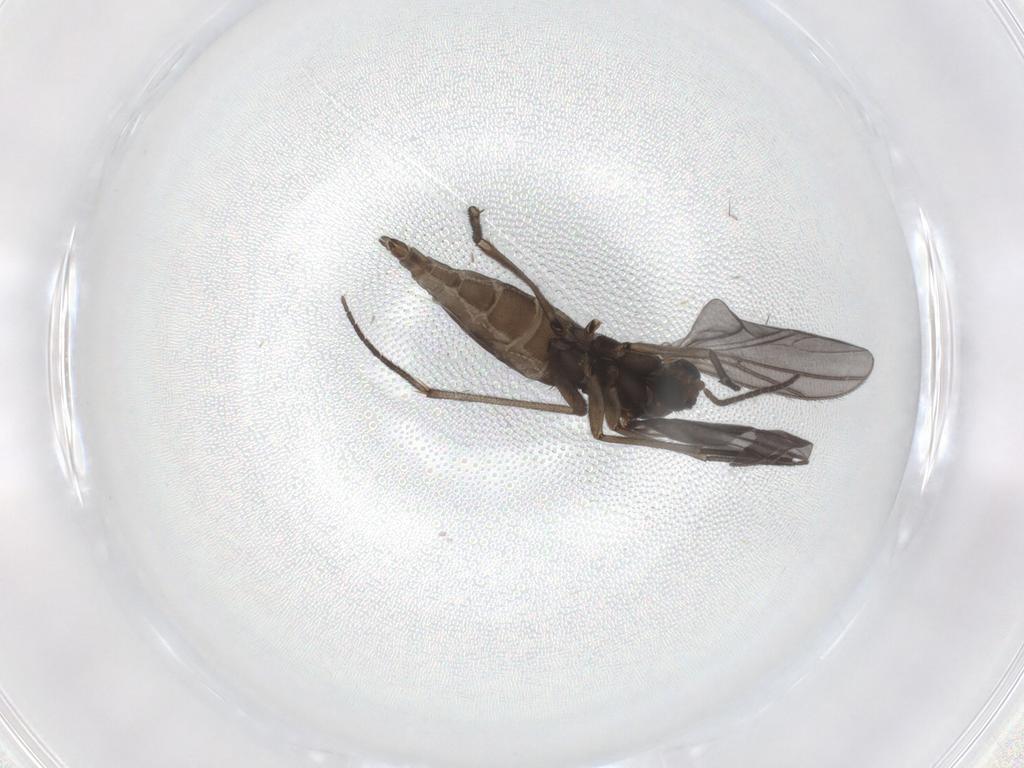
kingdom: Animalia
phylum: Arthropoda
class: Insecta
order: Diptera
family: Sciaridae
